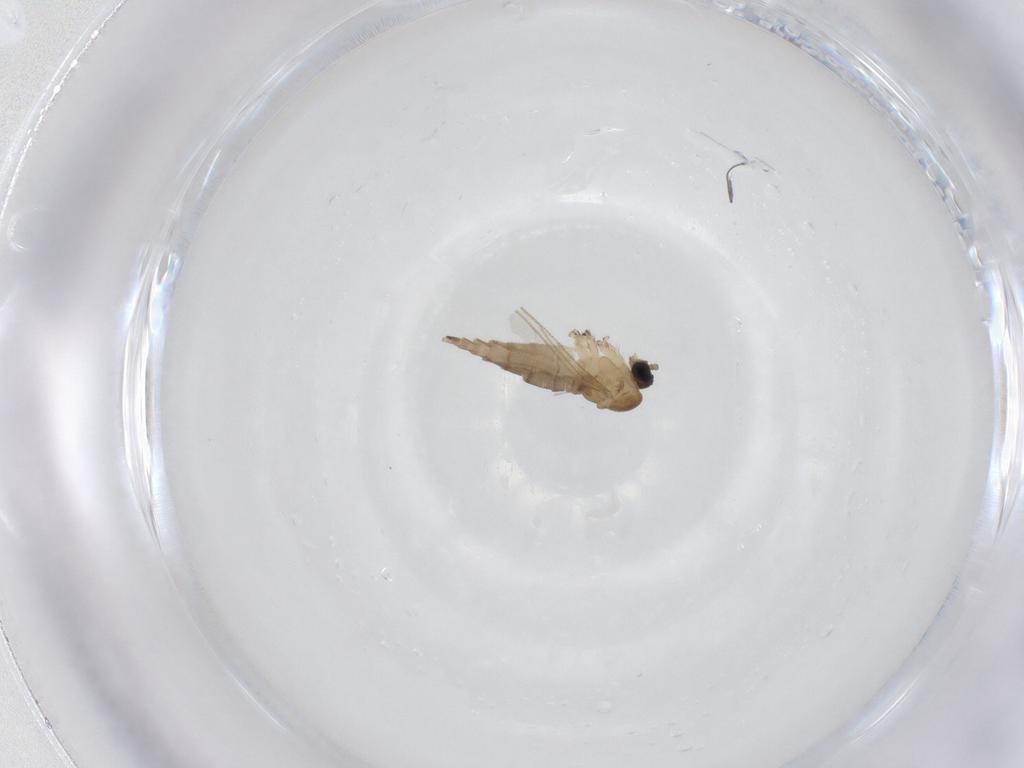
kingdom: Animalia
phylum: Arthropoda
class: Insecta
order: Diptera
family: Sciaridae
